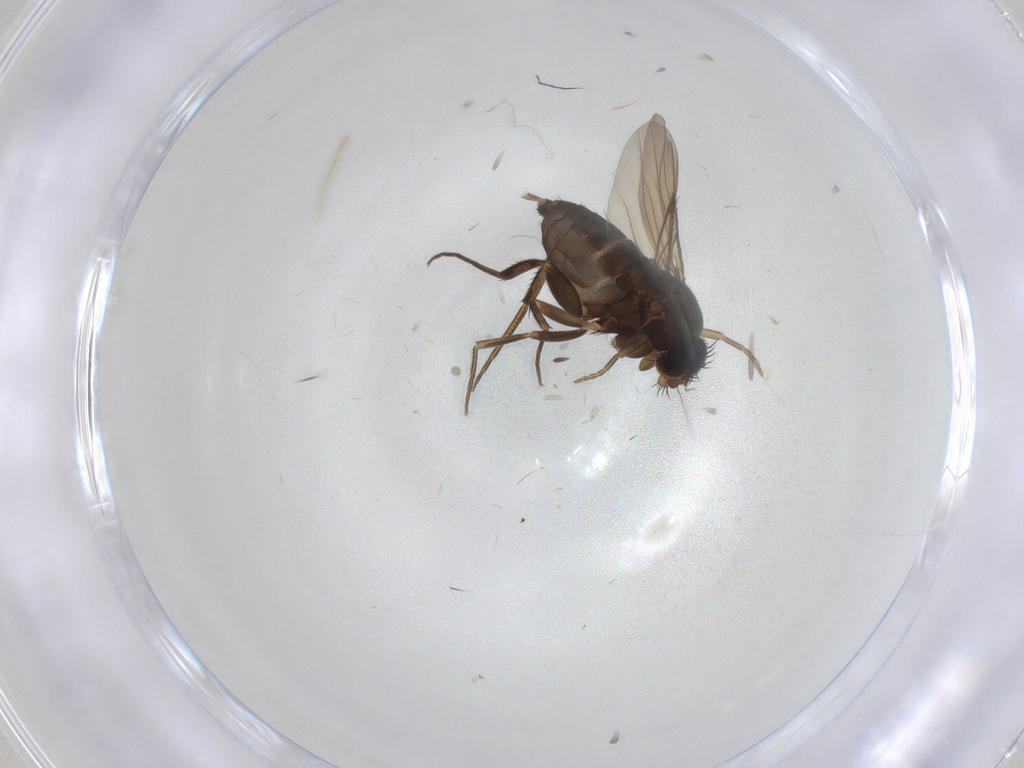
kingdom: Animalia
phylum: Arthropoda
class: Insecta
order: Diptera
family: Phoridae
